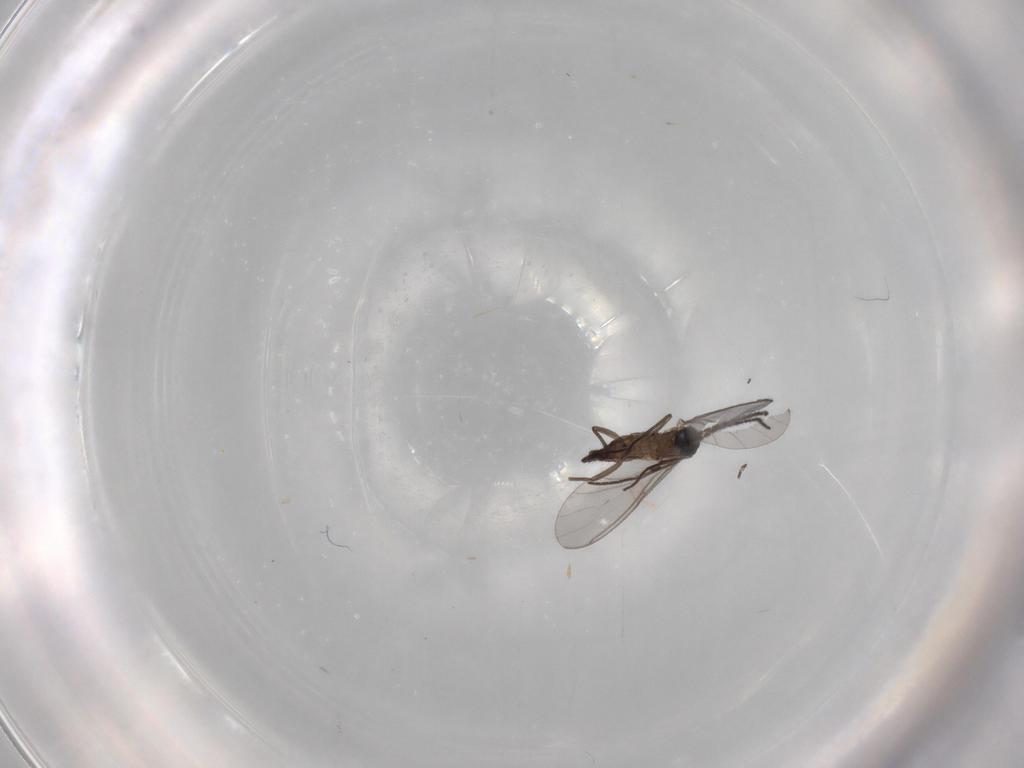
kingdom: Animalia
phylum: Arthropoda
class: Insecta
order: Diptera
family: Sciaridae
